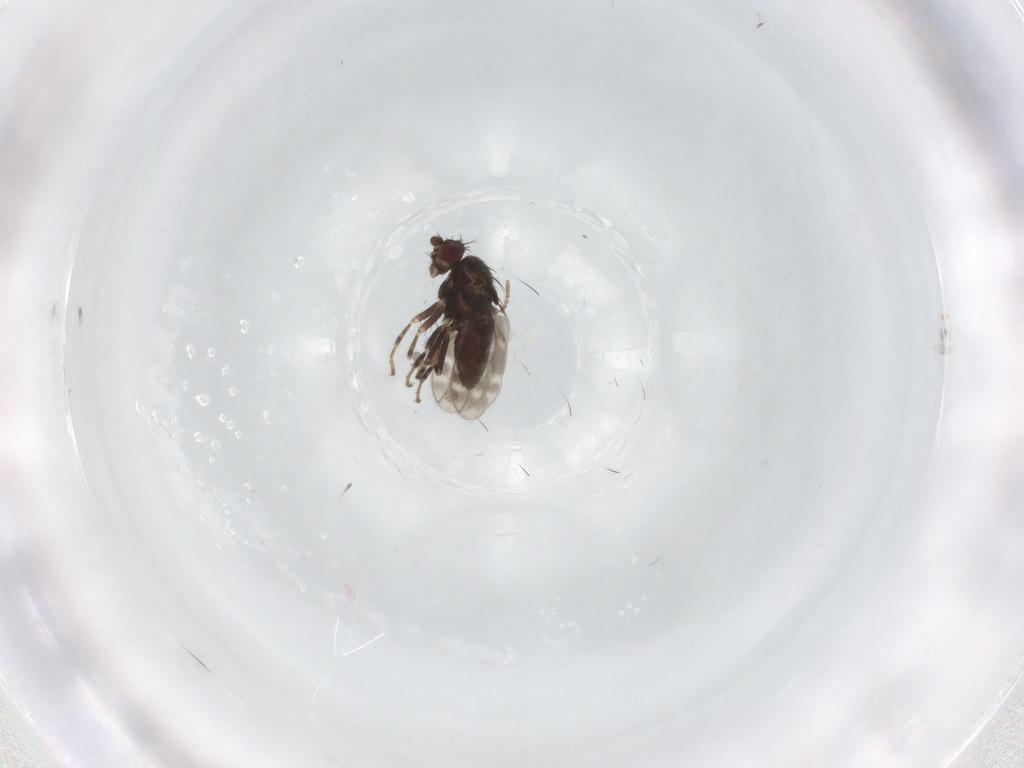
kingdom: Animalia
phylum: Arthropoda
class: Insecta
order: Diptera
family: Sphaeroceridae
